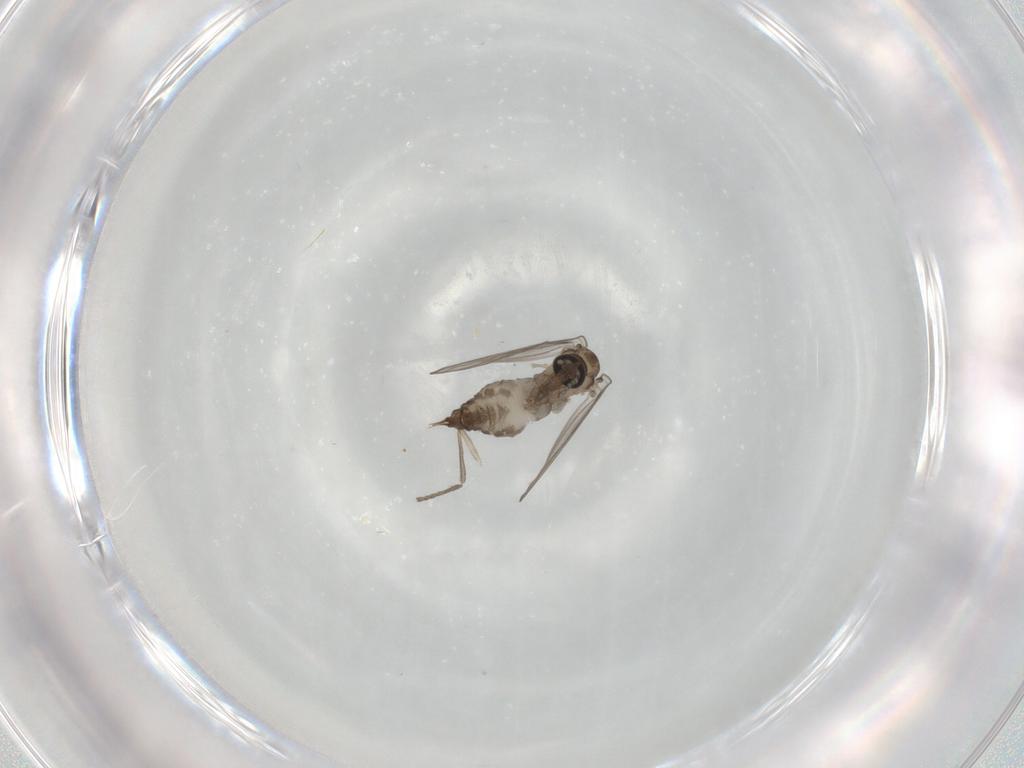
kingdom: Animalia
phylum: Arthropoda
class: Insecta
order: Diptera
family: Psychodidae
